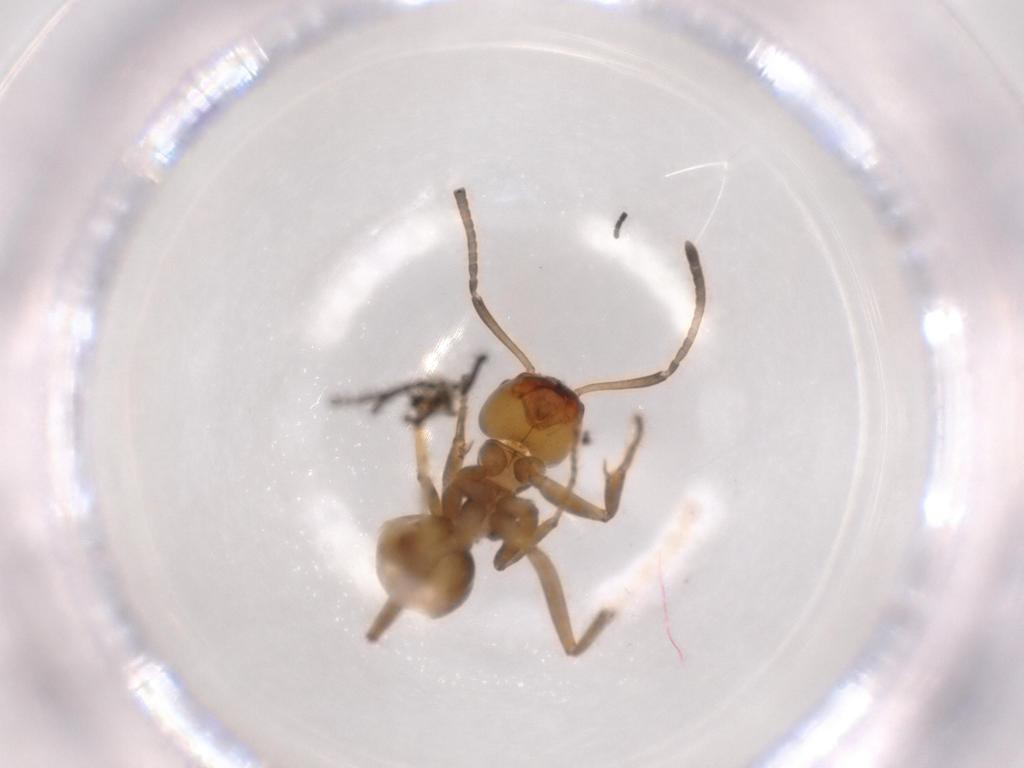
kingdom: Animalia
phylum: Arthropoda
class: Insecta
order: Hymenoptera
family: Formicidae
